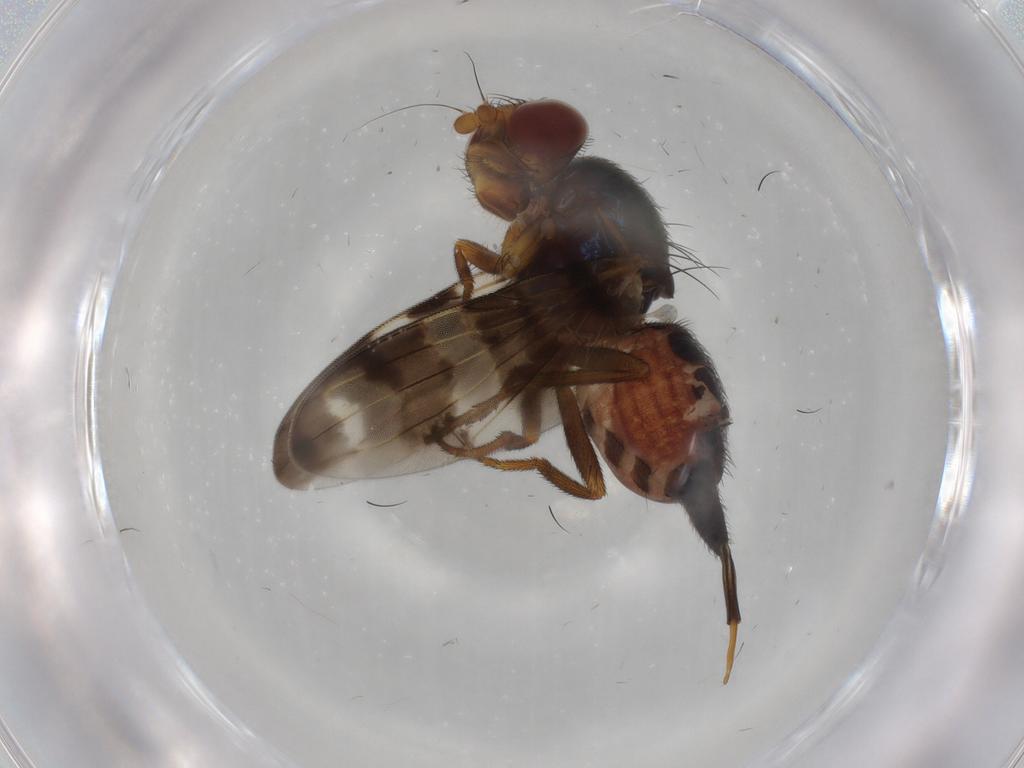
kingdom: Animalia
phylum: Arthropoda
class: Insecta
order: Diptera
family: Ulidiidae
